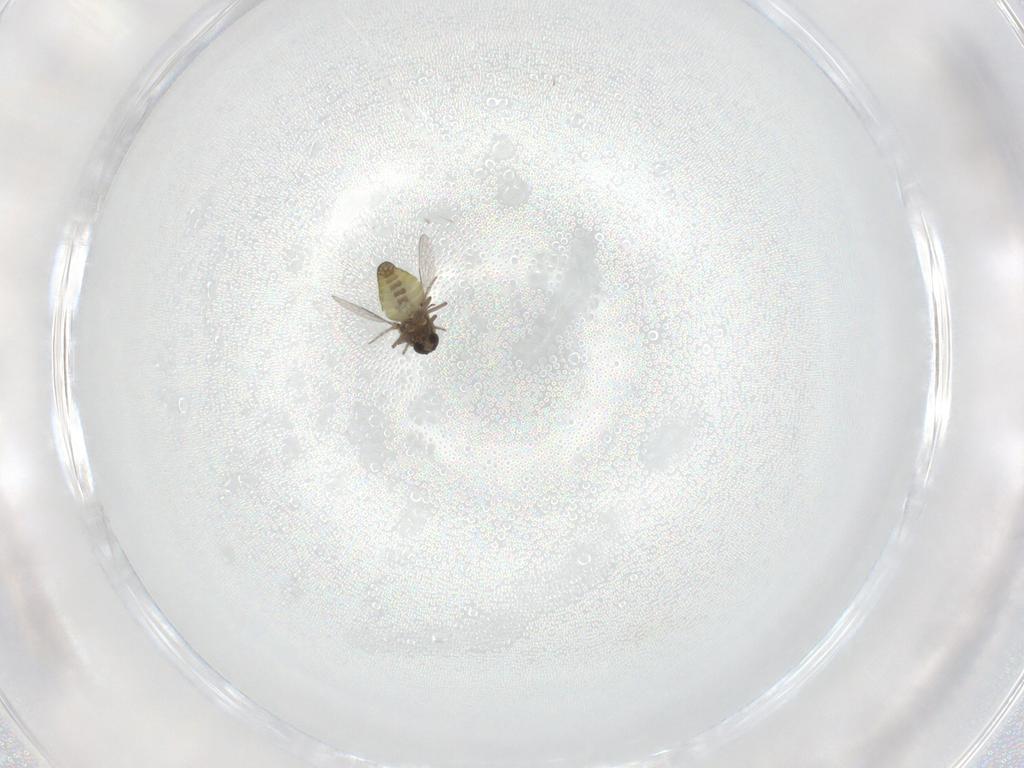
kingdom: Animalia
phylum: Arthropoda
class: Insecta
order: Diptera
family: Ceratopogonidae
